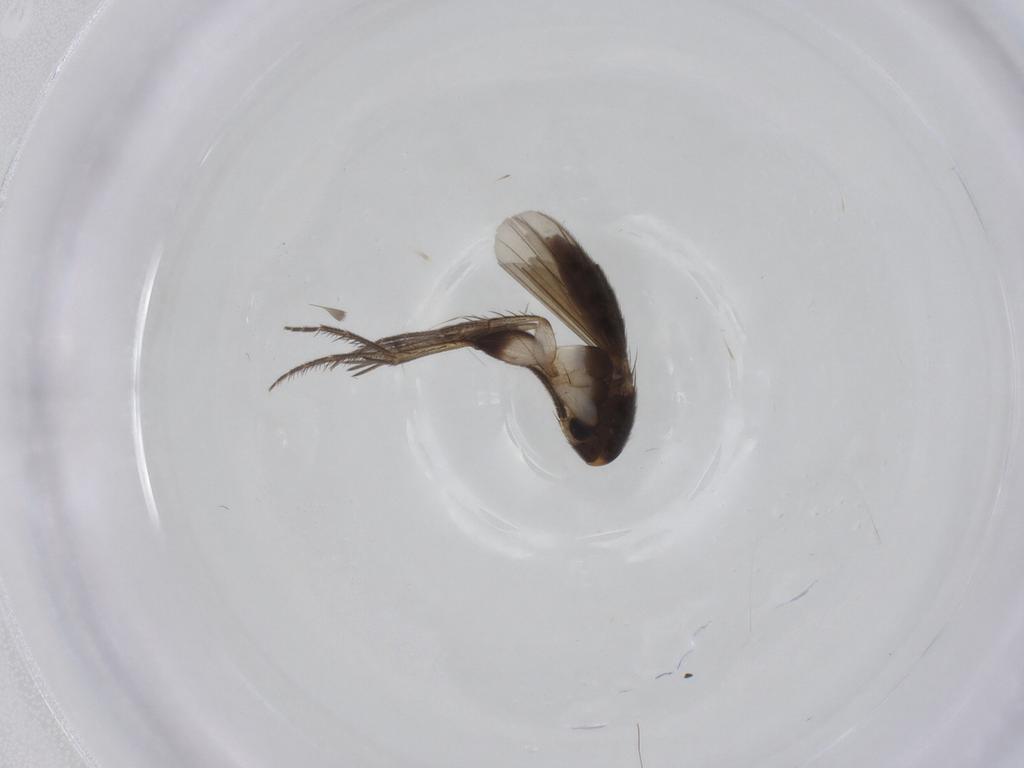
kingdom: Animalia
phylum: Arthropoda
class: Insecta
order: Diptera
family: Mycetophilidae
